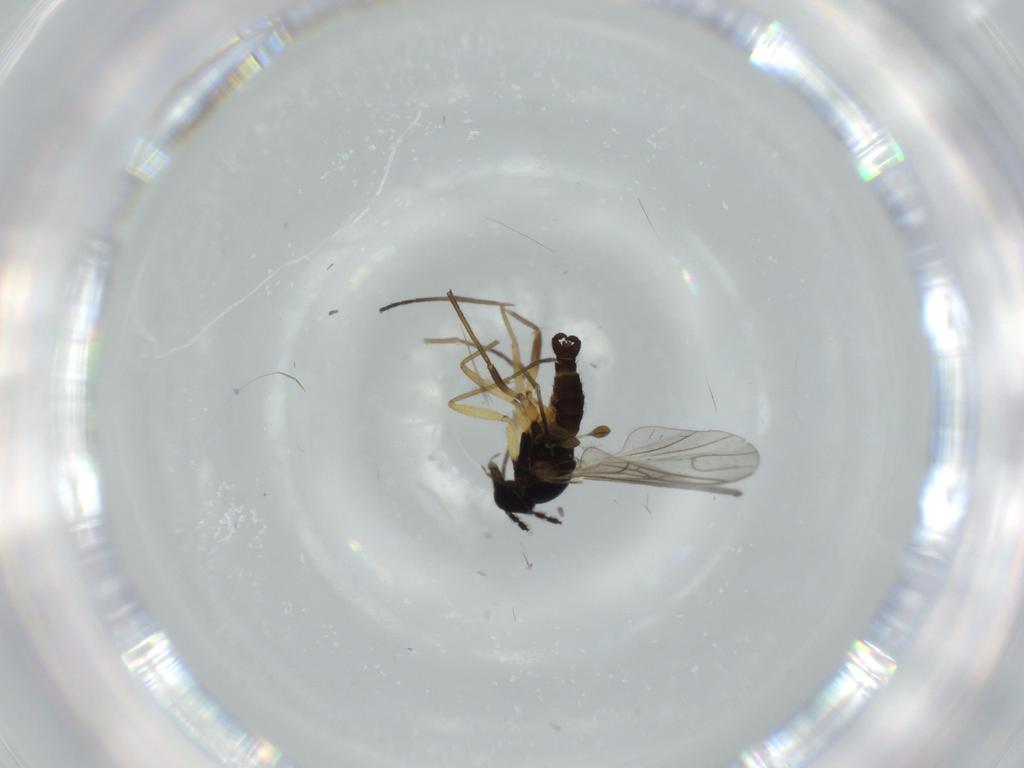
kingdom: Animalia
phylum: Arthropoda
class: Insecta
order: Diptera
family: Sciaridae
